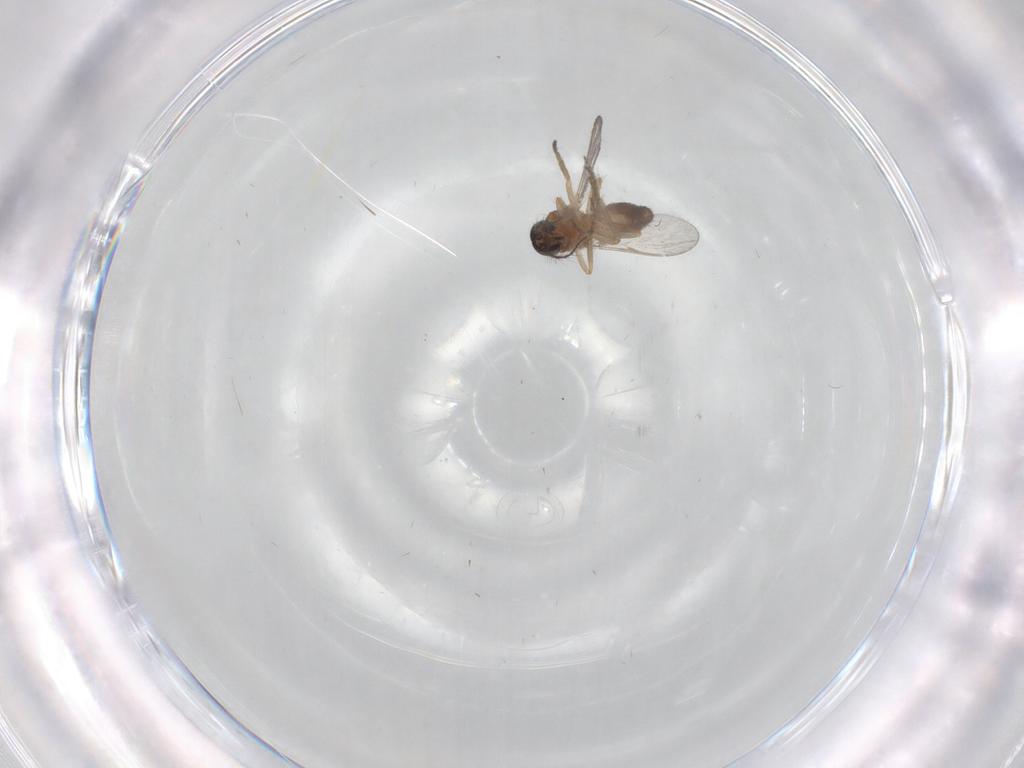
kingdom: Animalia
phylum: Arthropoda
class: Insecta
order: Diptera
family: Ceratopogonidae
